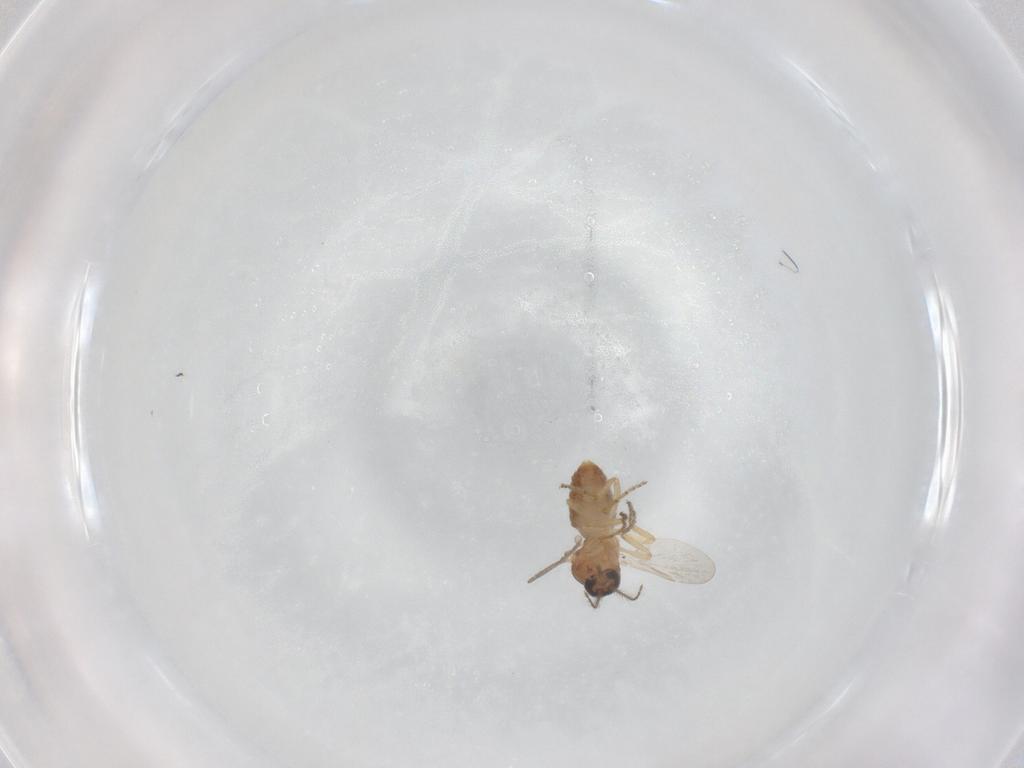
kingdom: Animalia
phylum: Arthropoda
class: Insecta
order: Diptera
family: Ceratopogonidae
